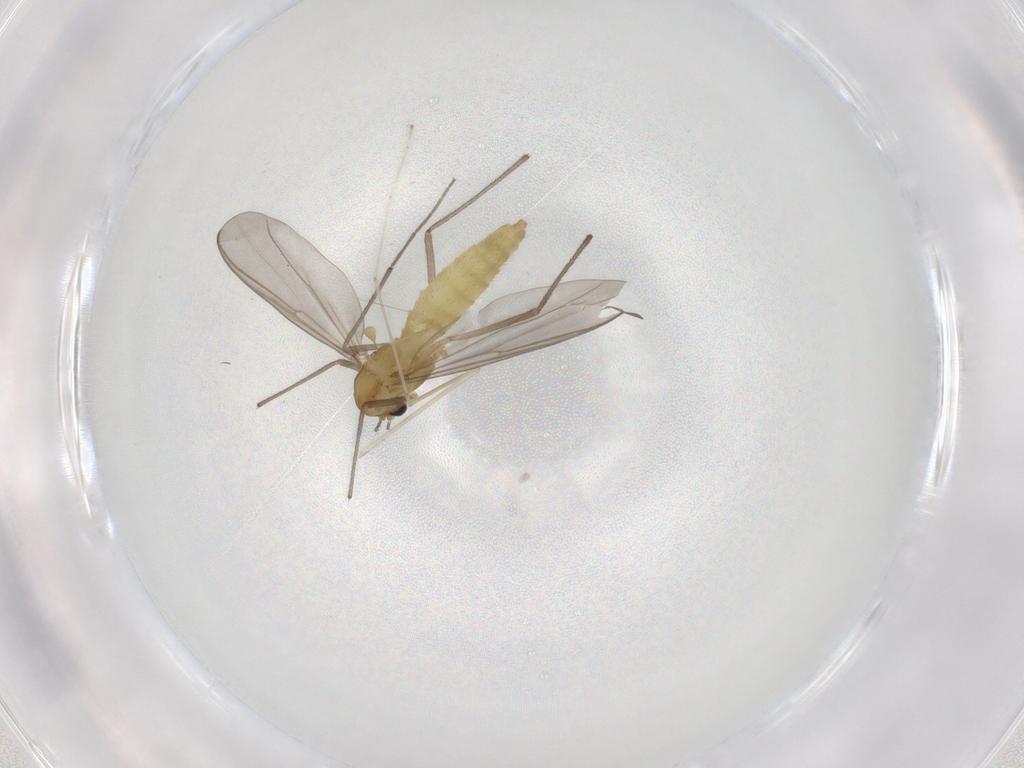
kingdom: Animalia
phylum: Arthropoda
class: Insecta
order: Diptera
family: Chironomidae
